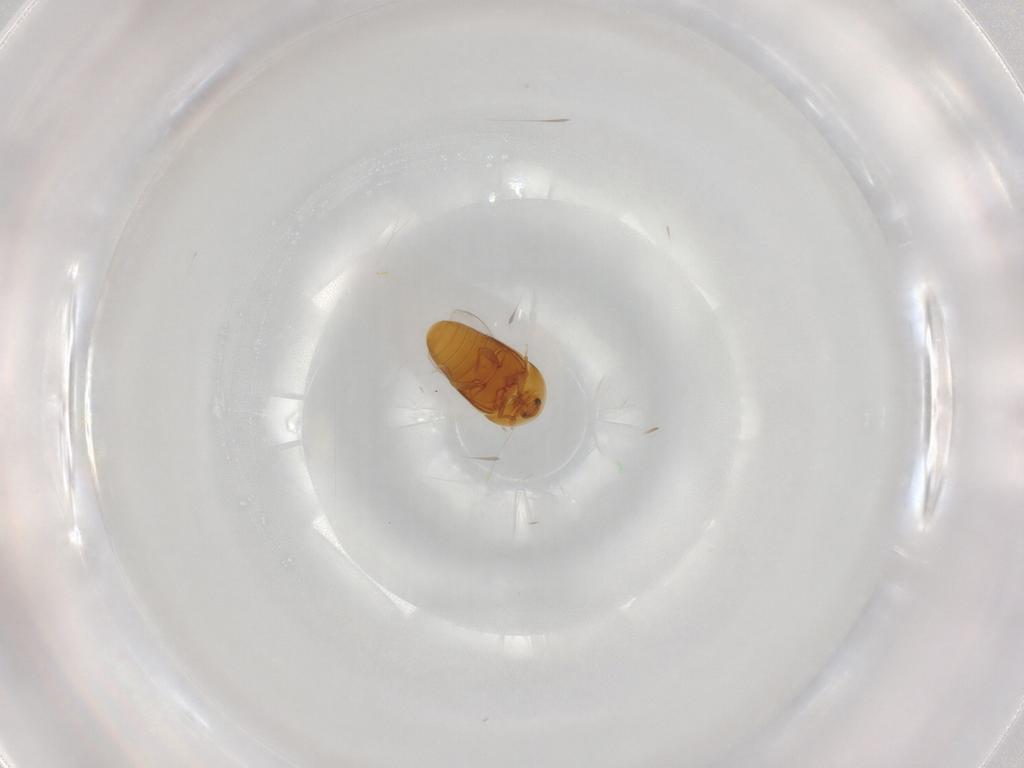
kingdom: Animalia
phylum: Arthropoda
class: Insecta
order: Coleoptera
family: Corylophidae
